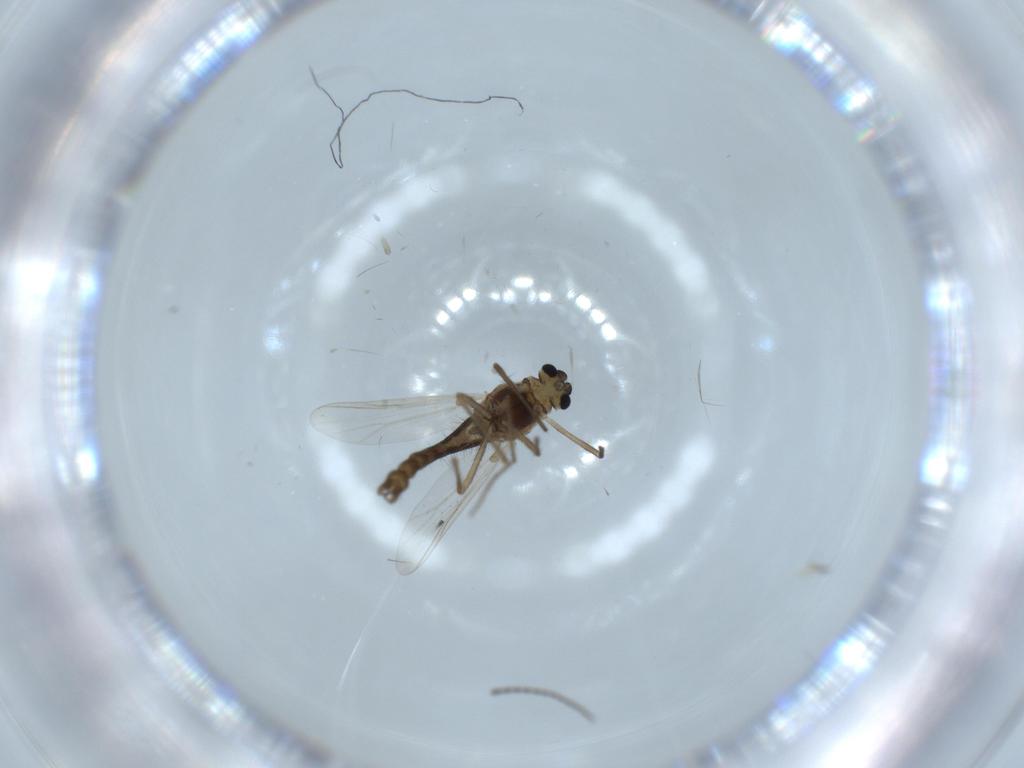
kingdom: Animalia
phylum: Arthropoda
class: Insecta
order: Diptera
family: Chironomidae
